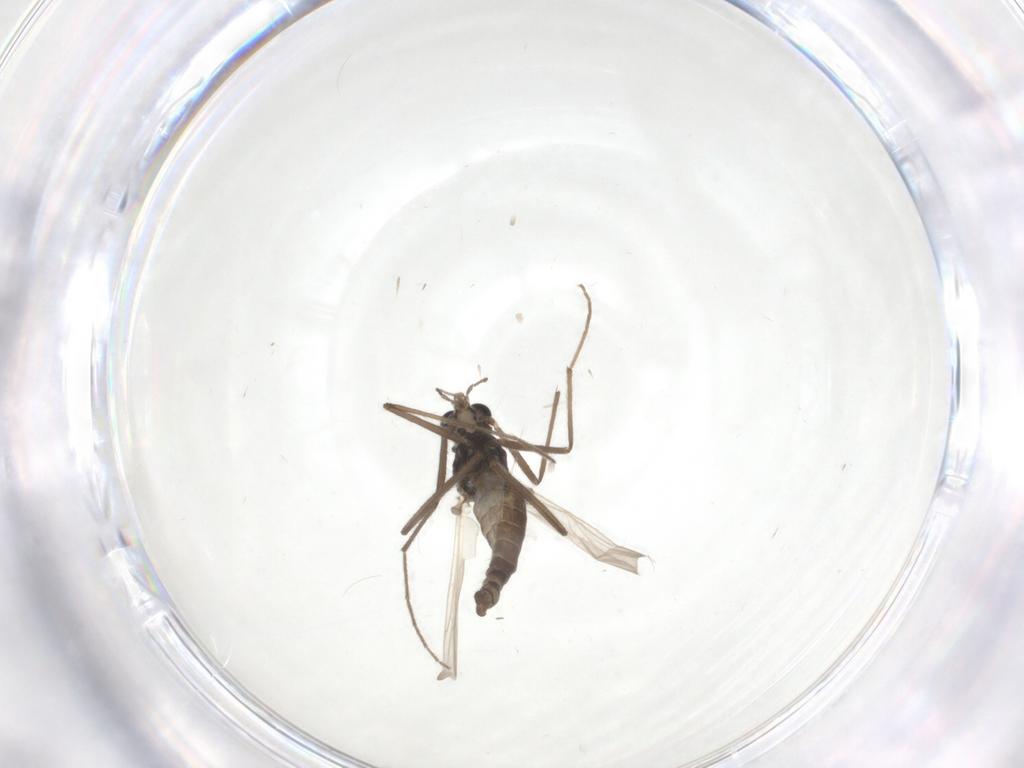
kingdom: Animalia
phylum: Arthropoda
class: Insecta
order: Diptera
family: Chironomidae
